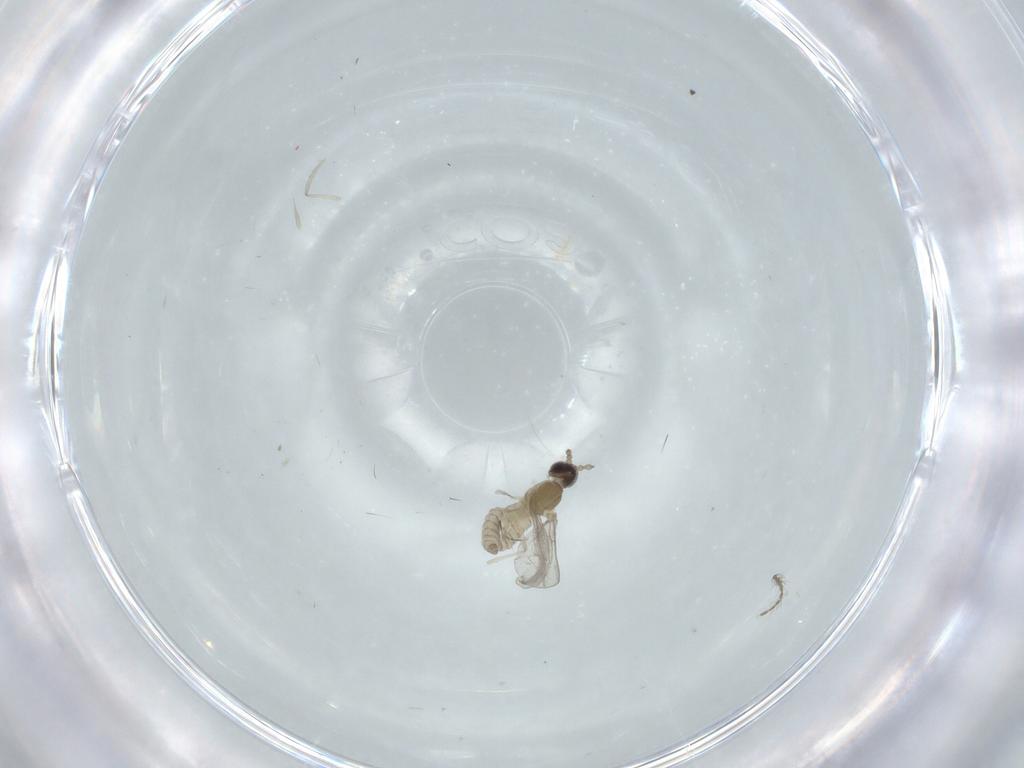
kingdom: Animalia
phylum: Arthropoda
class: Insecta
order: Diptera
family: Cecidomyiidae
